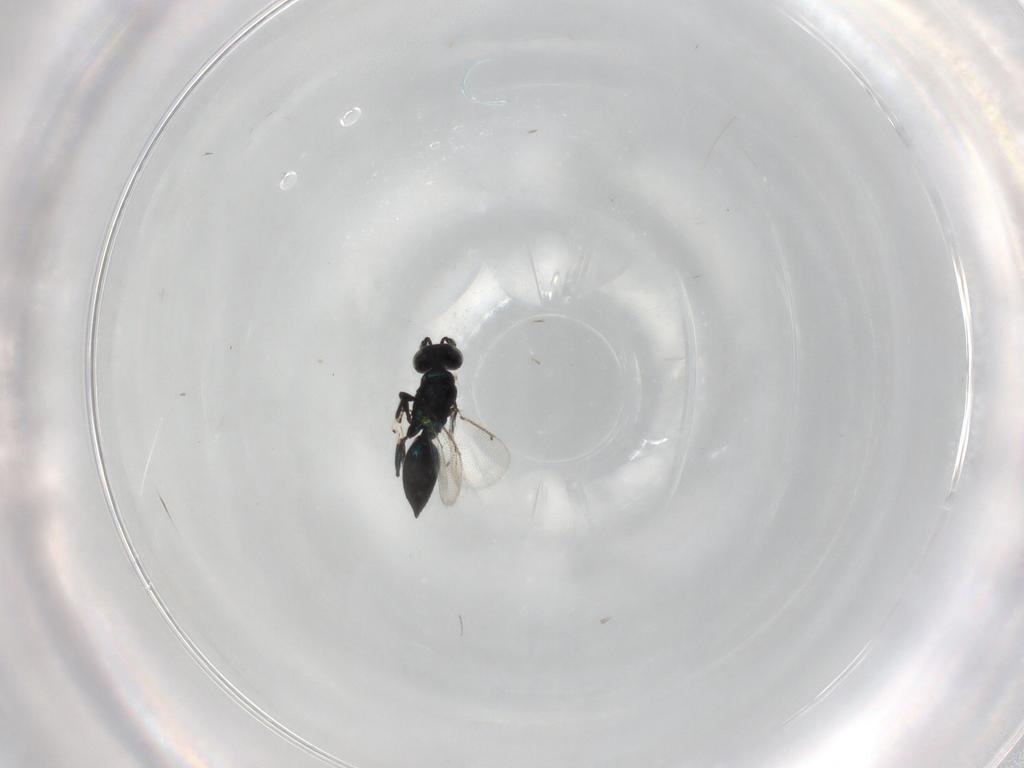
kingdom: Animalia
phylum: Arthropoda
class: Insecta
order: Hymenoptera
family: Eulophidae
